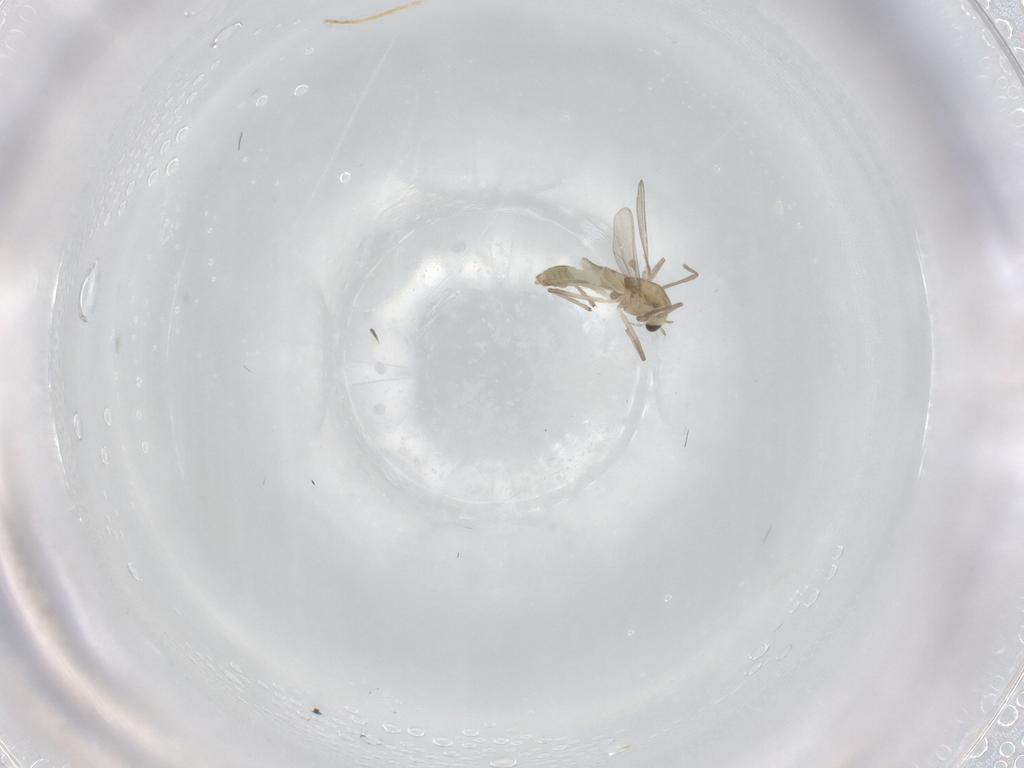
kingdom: Animalia
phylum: Arthropoda
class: Insecta
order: Diptera
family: Chironomidae
